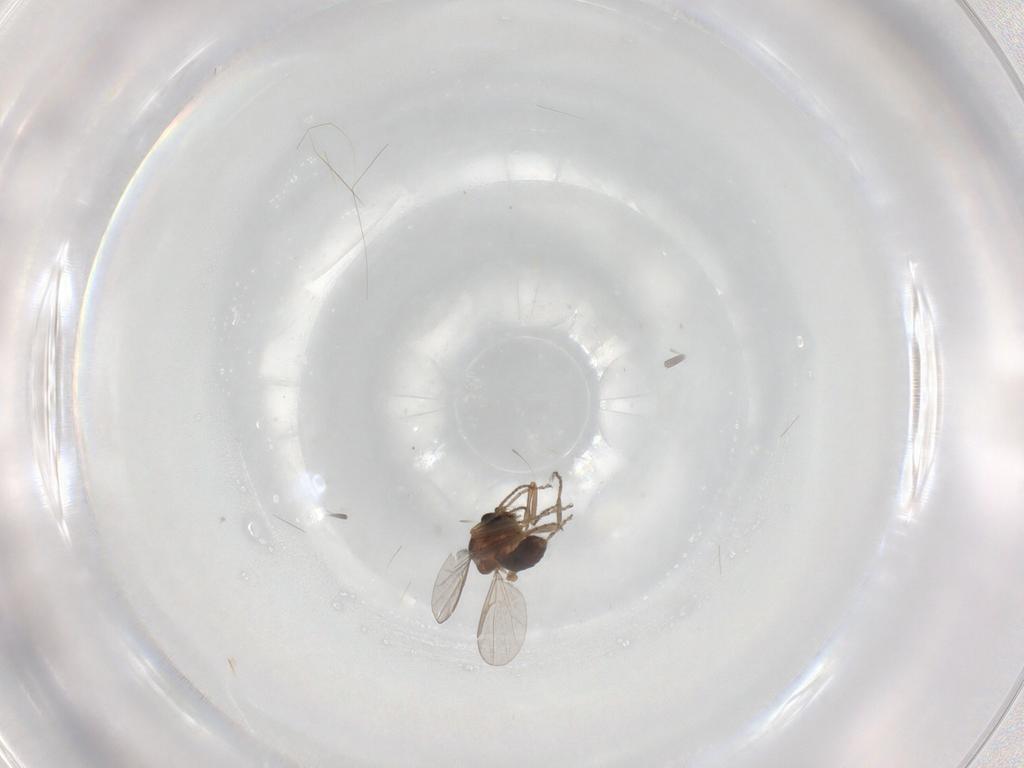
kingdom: Animalia
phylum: Arthropoda
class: Insecta
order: Diptera
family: Ceratopogonidae
